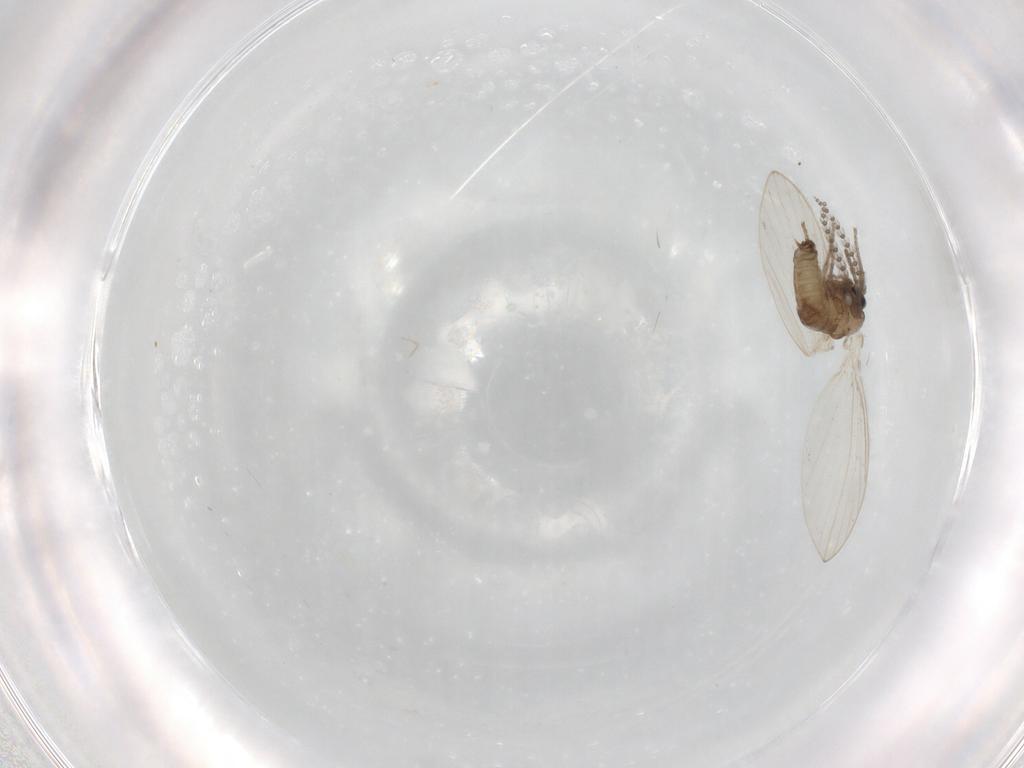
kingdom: Animalia
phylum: Arthropoda
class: Insecta
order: Diptera
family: Psychodidae
